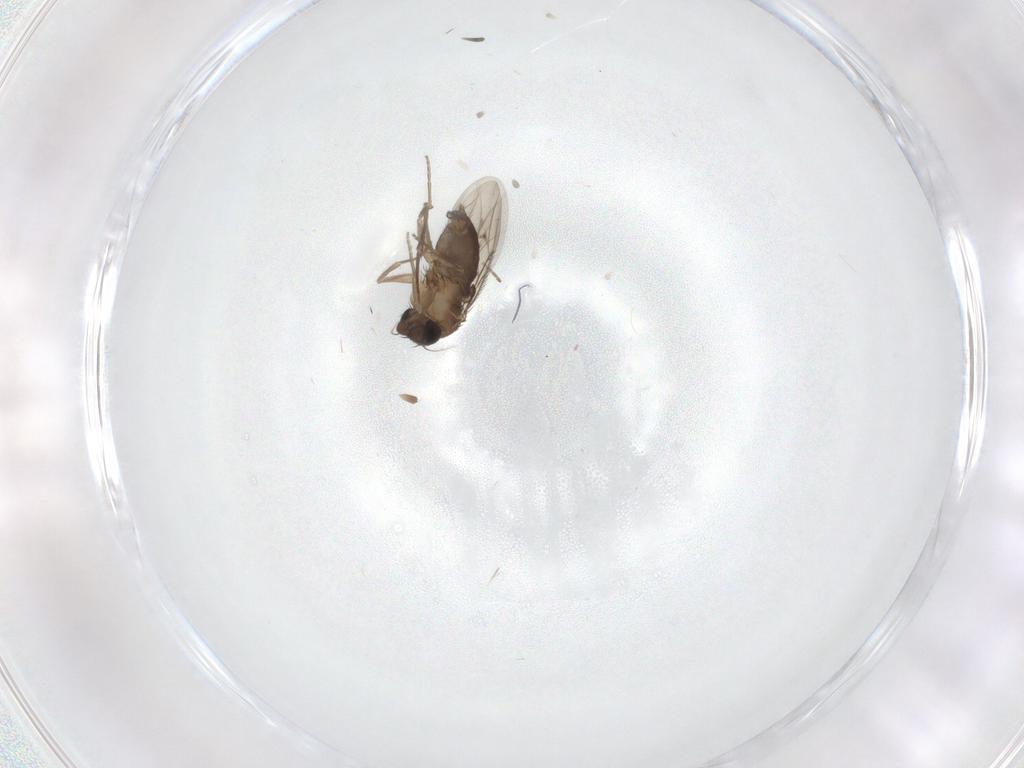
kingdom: Animalia
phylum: Arthropoda
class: Insecta
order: Diptera
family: Phoridae
